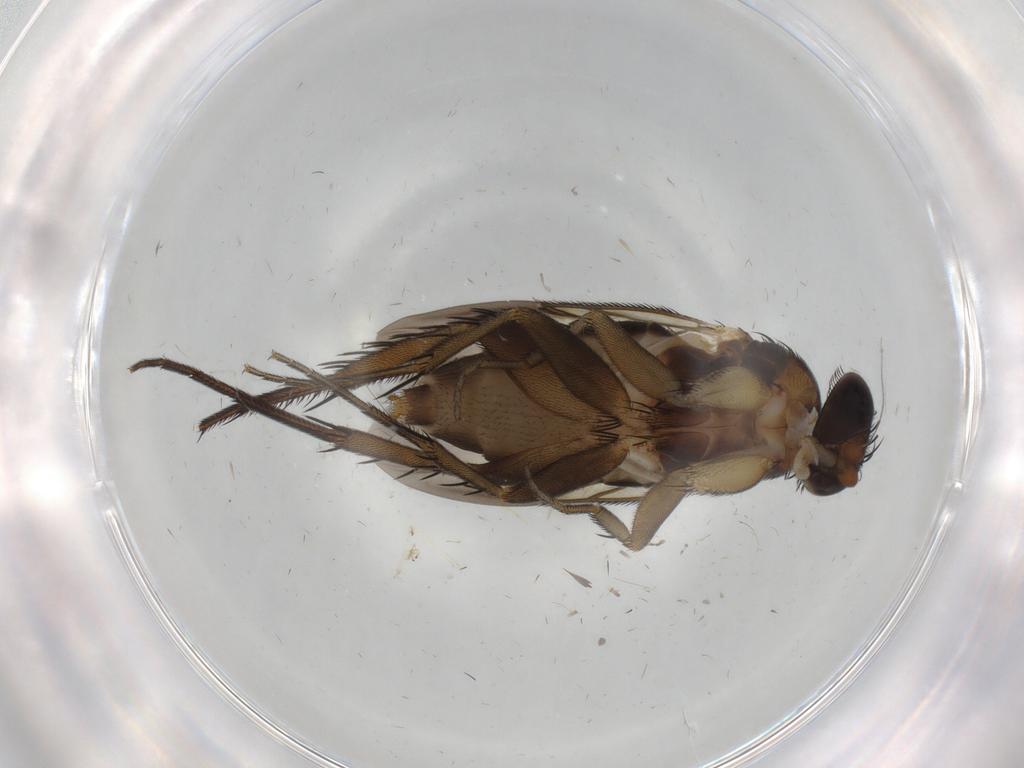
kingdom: Animalia
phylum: Arthropoda
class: Insecta
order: Diptera
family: Psychodidae
